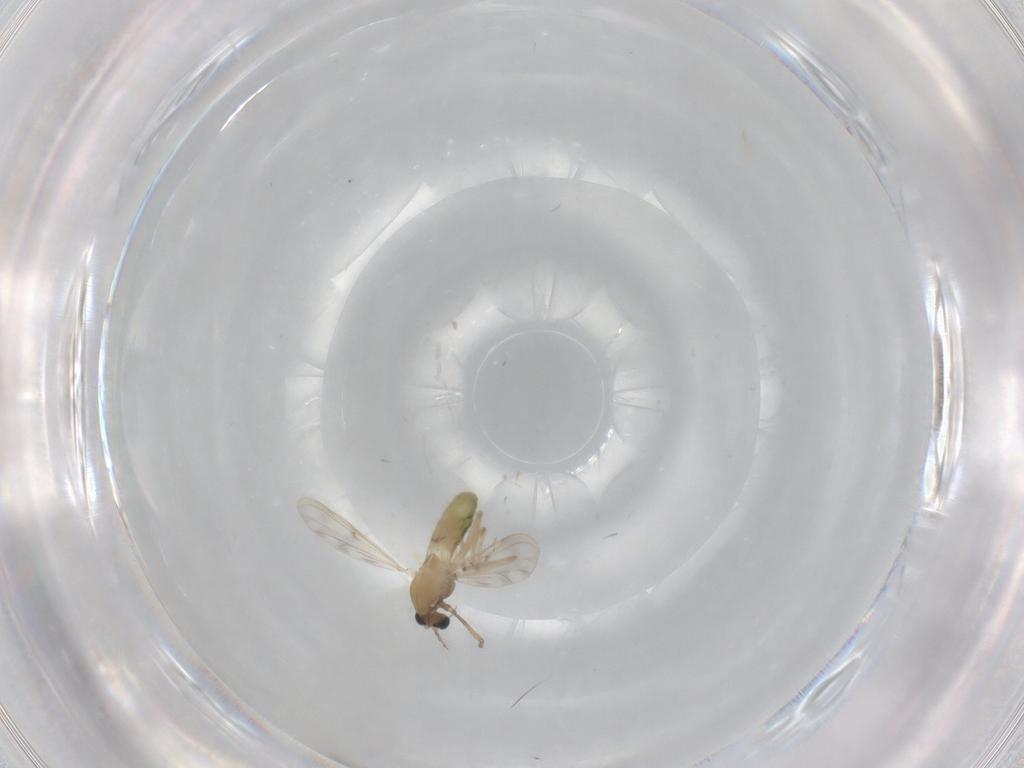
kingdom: Animalia
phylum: Arthropoda
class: Insecta
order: Diptera
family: Chironomidae
